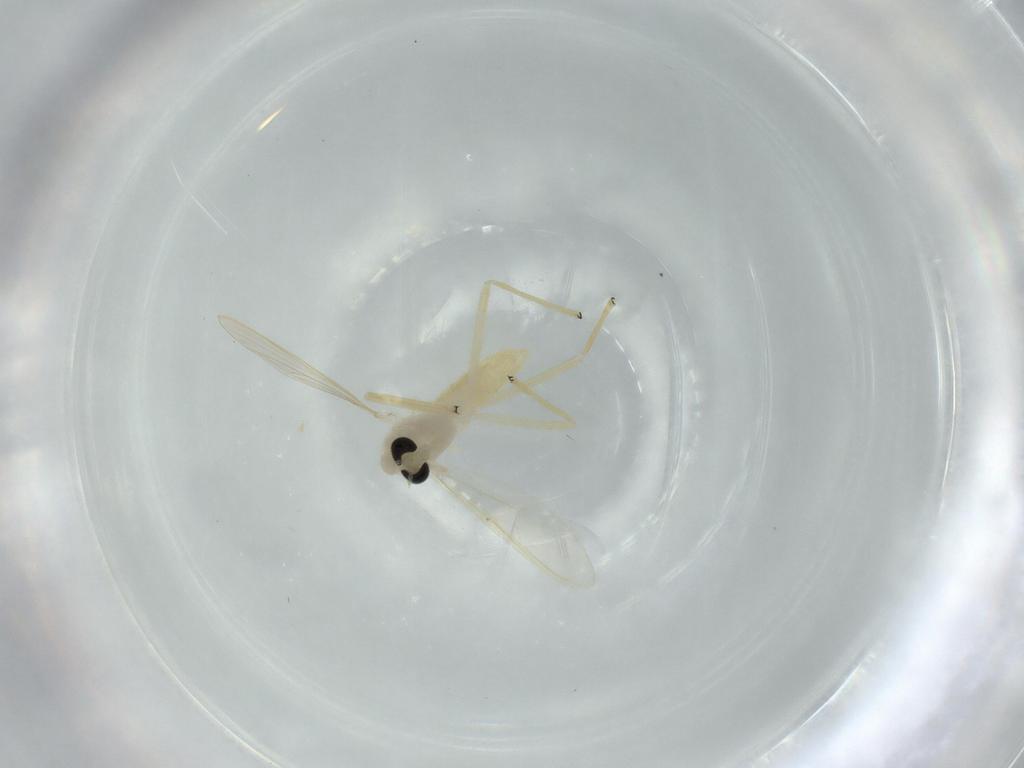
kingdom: Animalia
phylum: Arthropoda
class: Insecta
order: Diptera
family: Chironomidae
